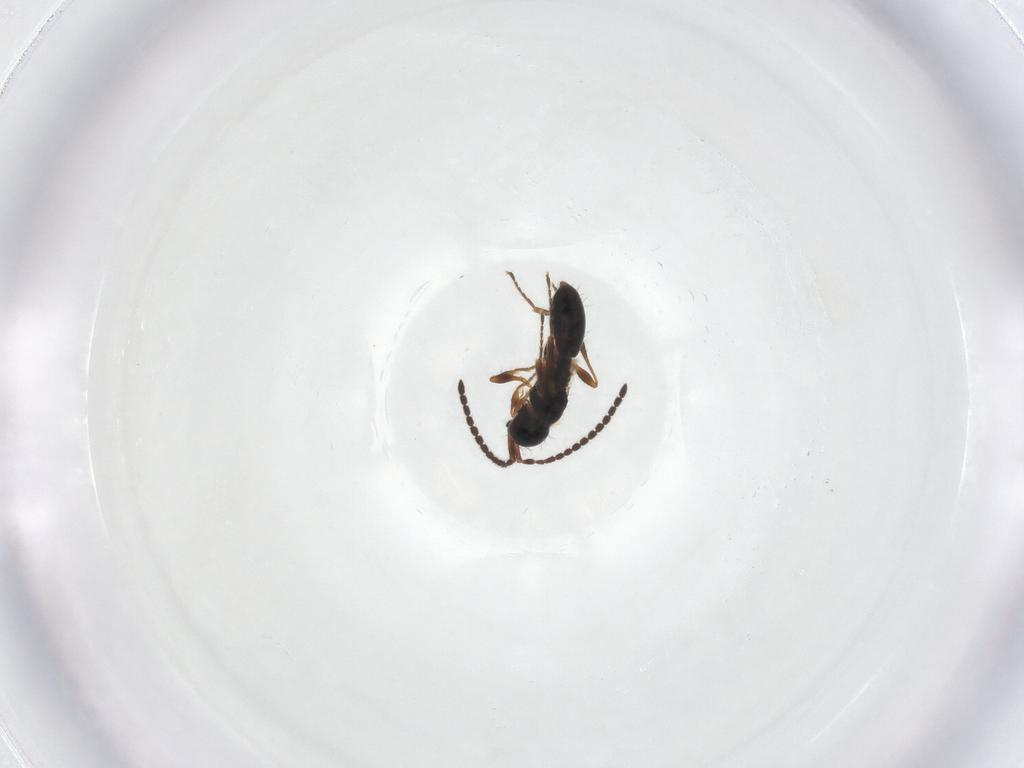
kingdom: Animalia
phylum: Arthropoda
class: Insecta
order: Hymenoptera
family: Diapriidae
